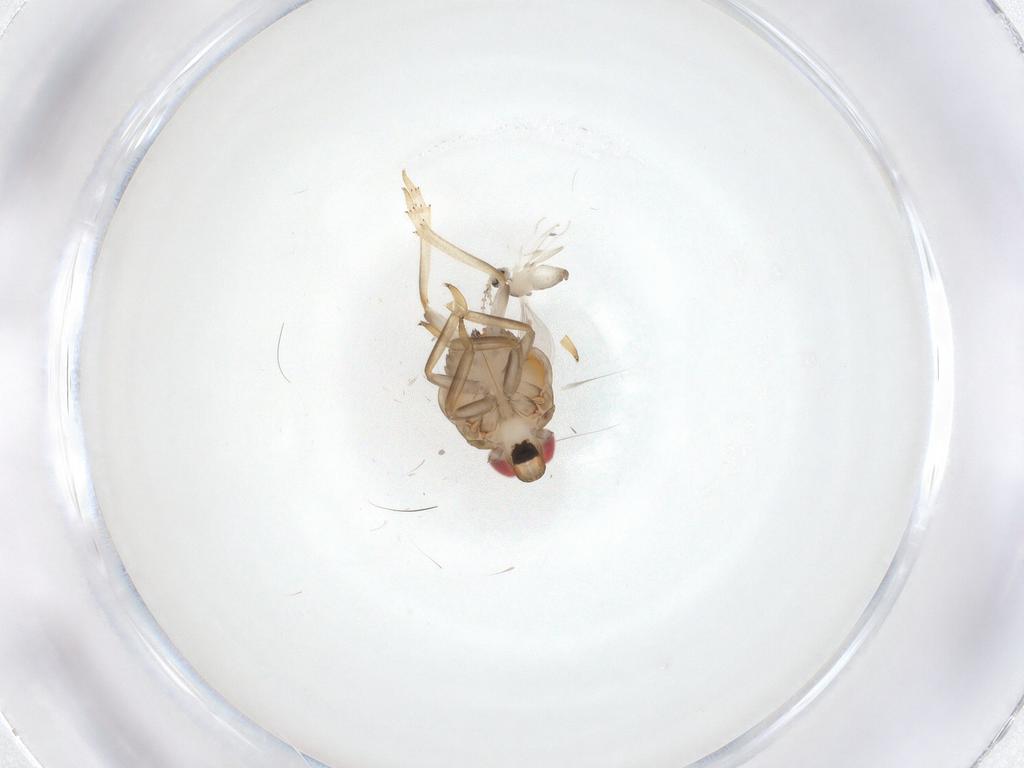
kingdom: Animalia
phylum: Arthropoda
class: Insecta
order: Hemiptera
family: Issidae
